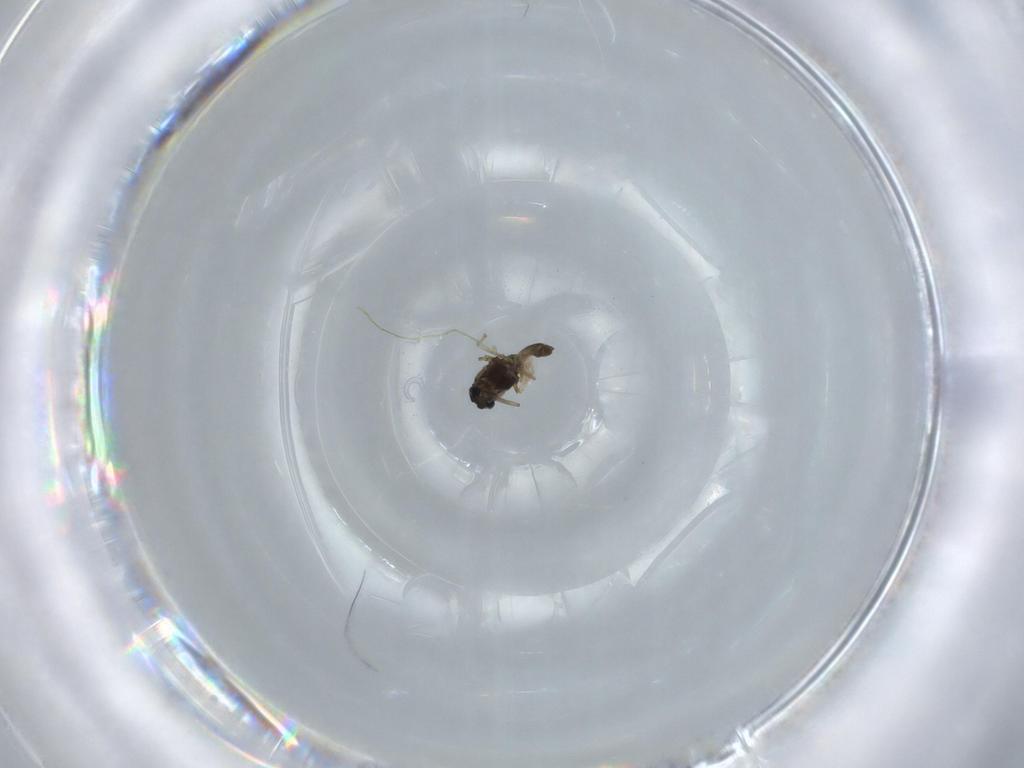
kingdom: Animalia
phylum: Arthropoda
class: Insecta
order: Diptera
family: Chironomidae
